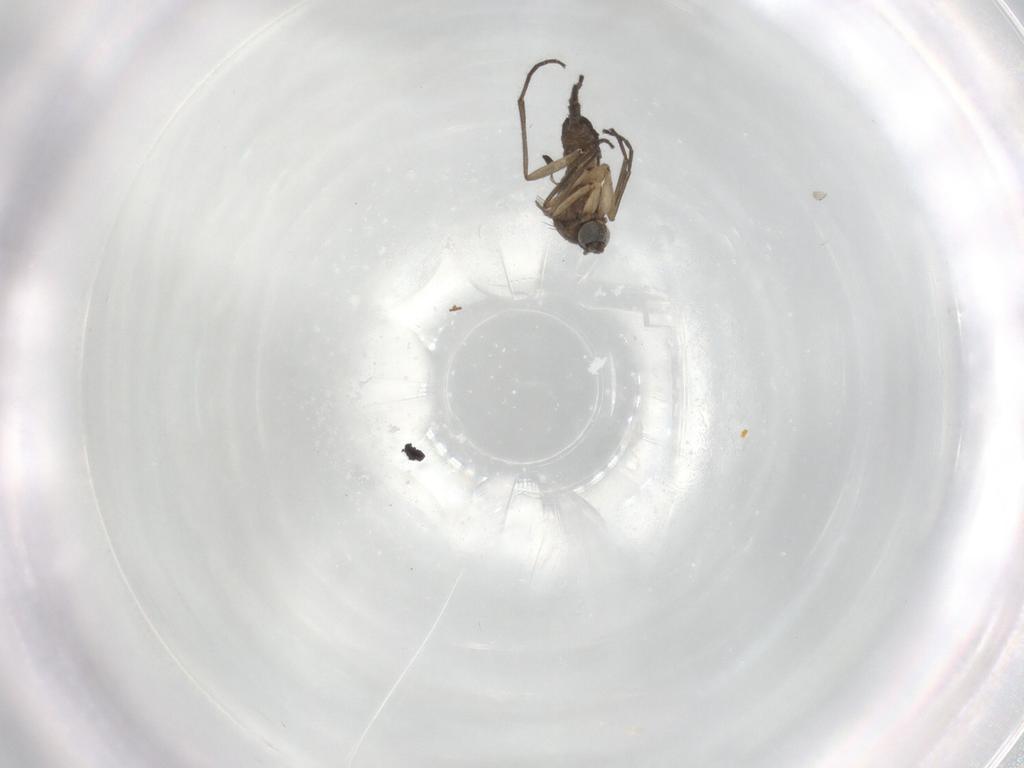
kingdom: Animalia
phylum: Arthropoda
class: Insecta
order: Diptera
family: Sciaridae
